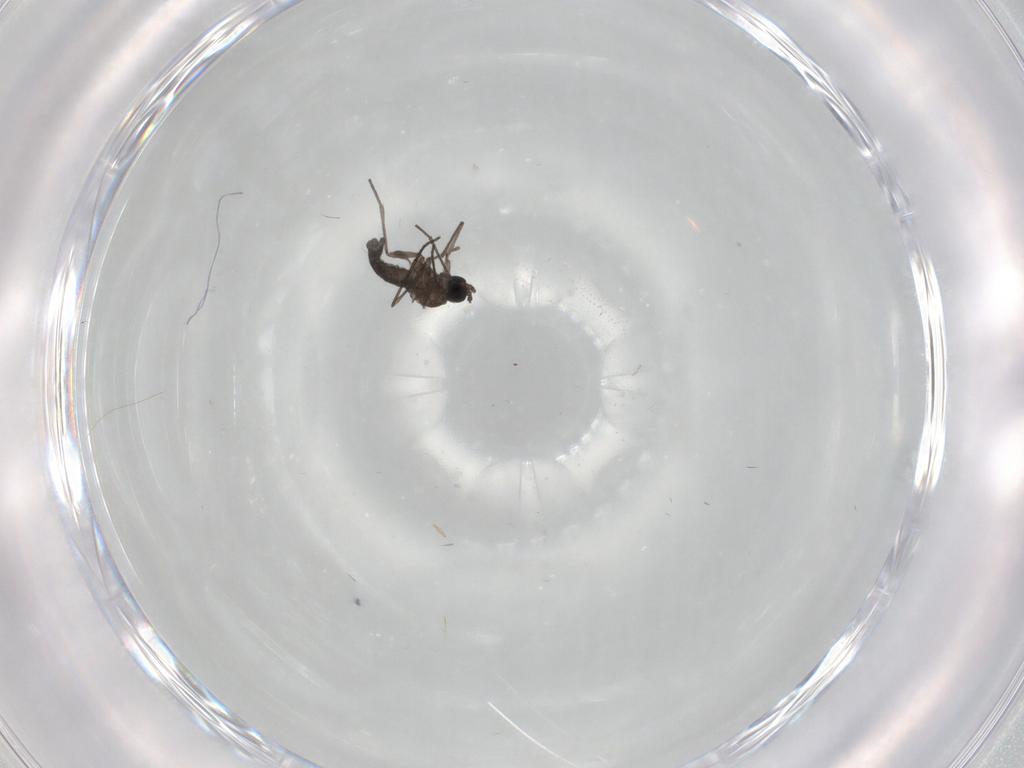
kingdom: Animalia
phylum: Arthropoda
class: Insecta
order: Diptera
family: Sciaridae
